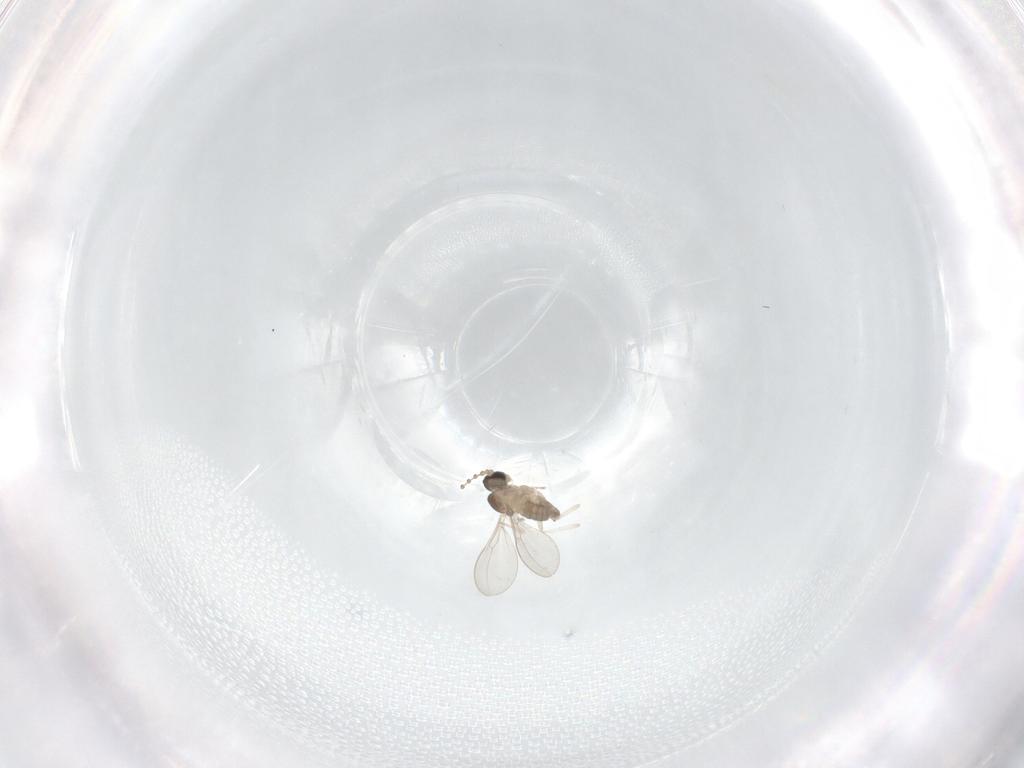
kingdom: Animalia
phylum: Arthropoda
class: Insecta
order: Diptera
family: Cecidomyiidae
